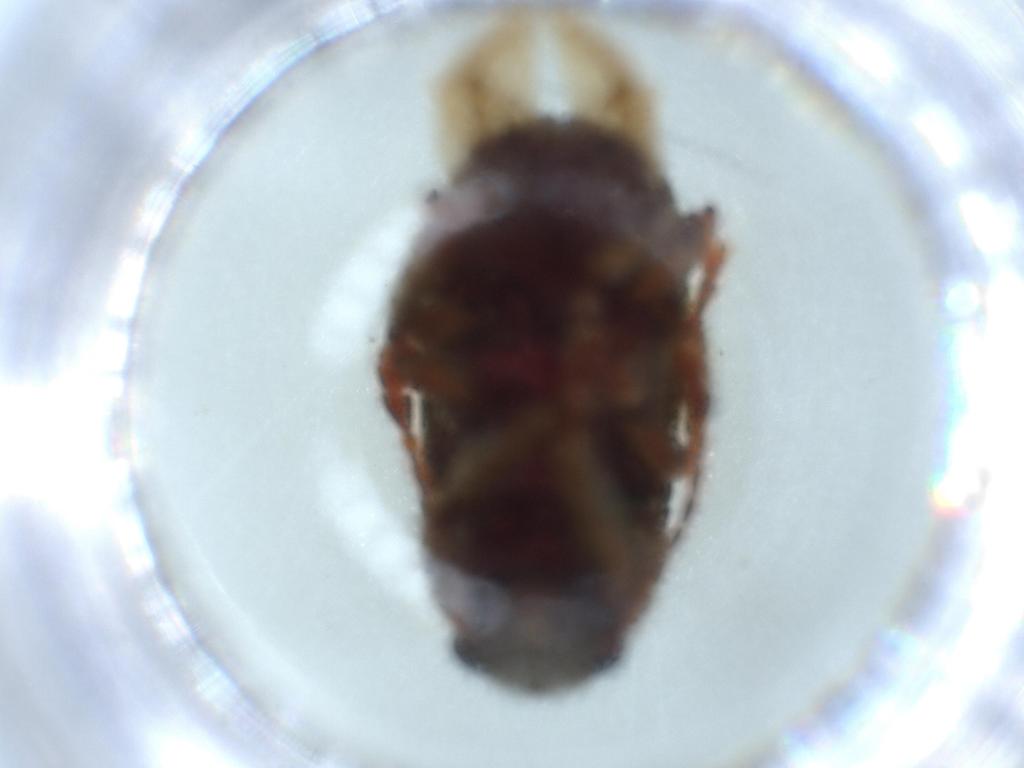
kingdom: Animalia
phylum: Arthropoda
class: Insecta
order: Coleoptera
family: Anthribidae
